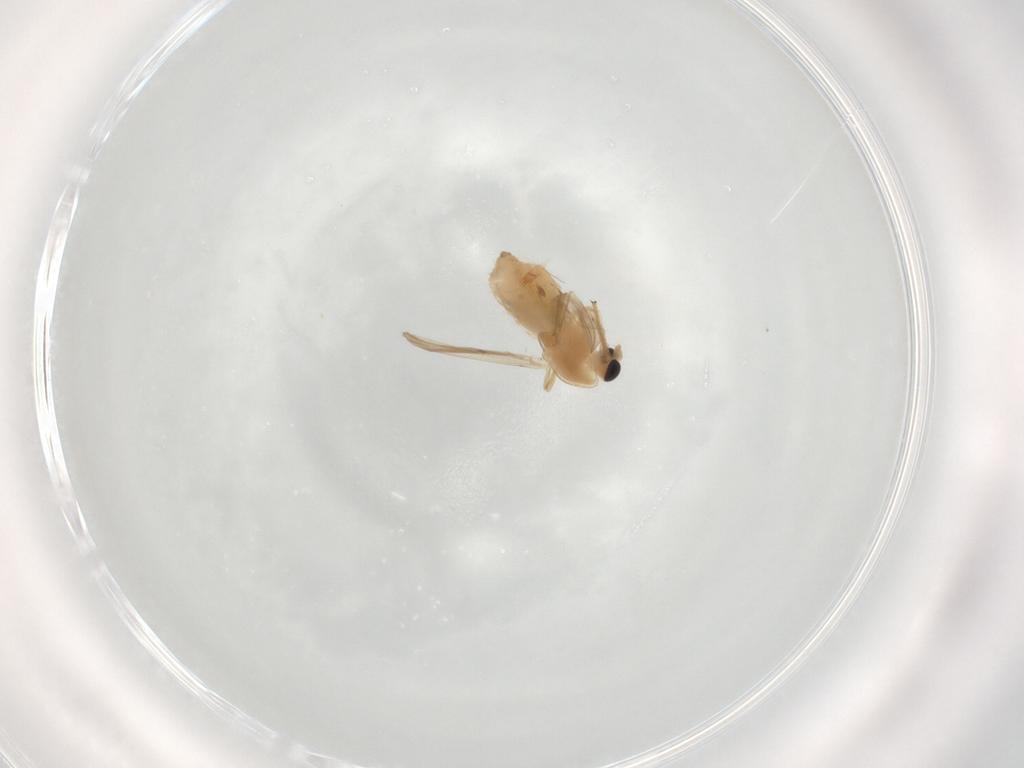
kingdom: Animalia
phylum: Arthropoda
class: Insecta
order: Diptera
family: Chironomidae
